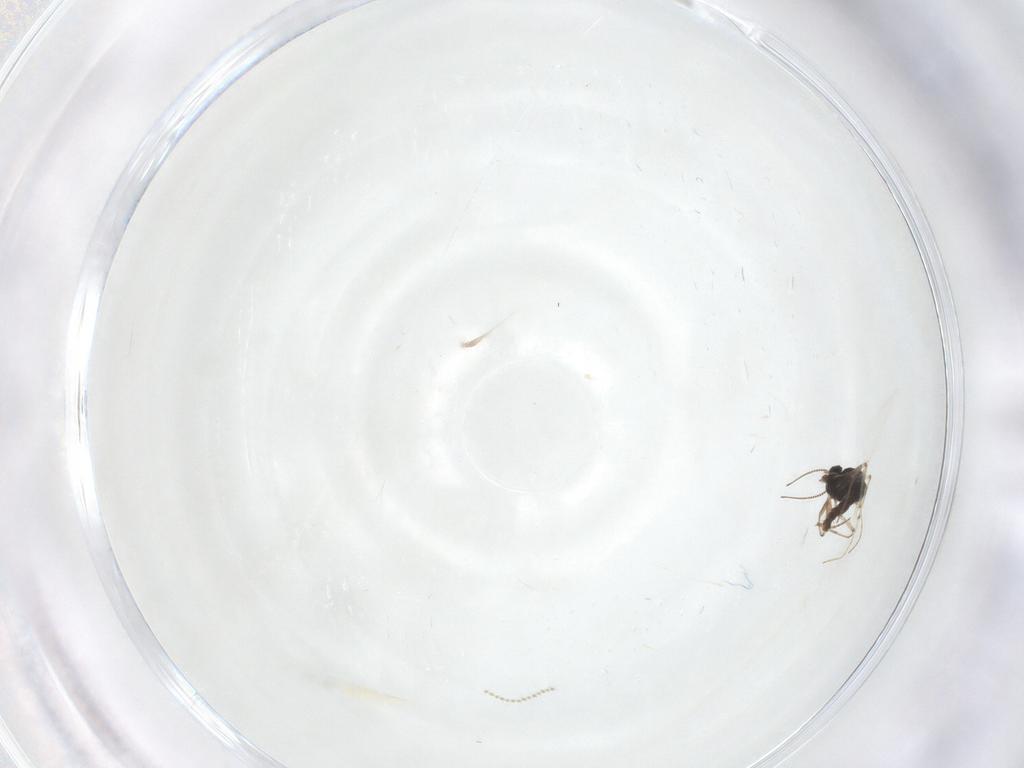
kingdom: Animalia
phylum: Arthropoda
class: Insecta
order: Diptera
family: Chironomidae
